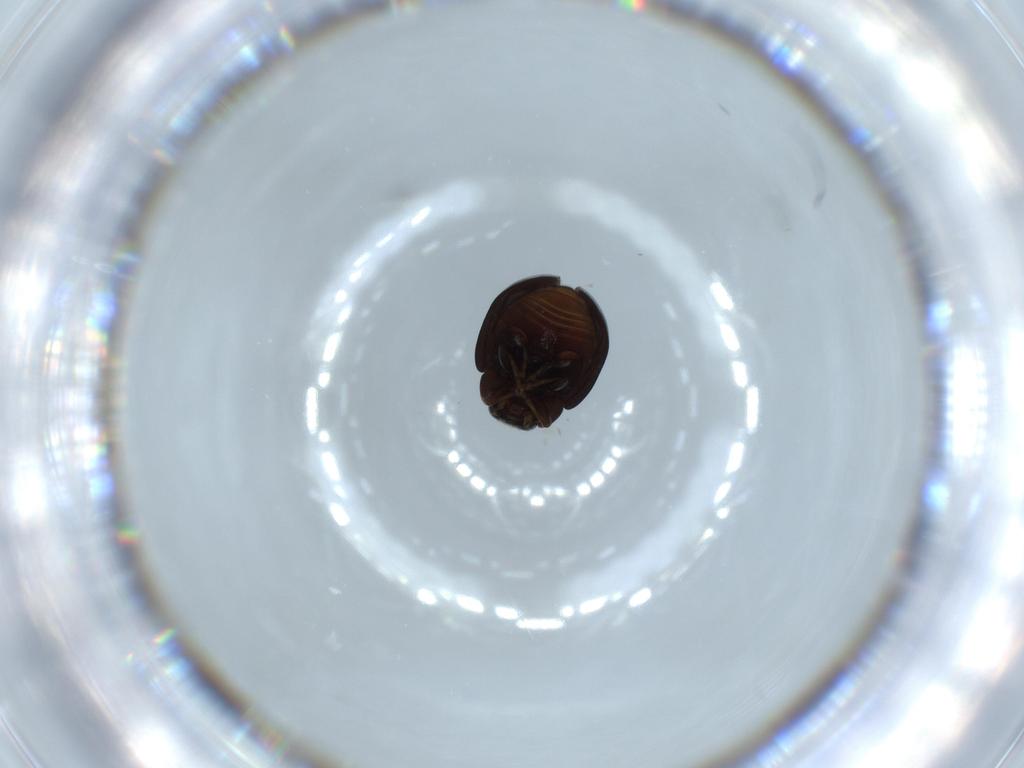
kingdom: Animalia
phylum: Arthropoda
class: Insecta
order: Coleoptera
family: Coccinellidae
